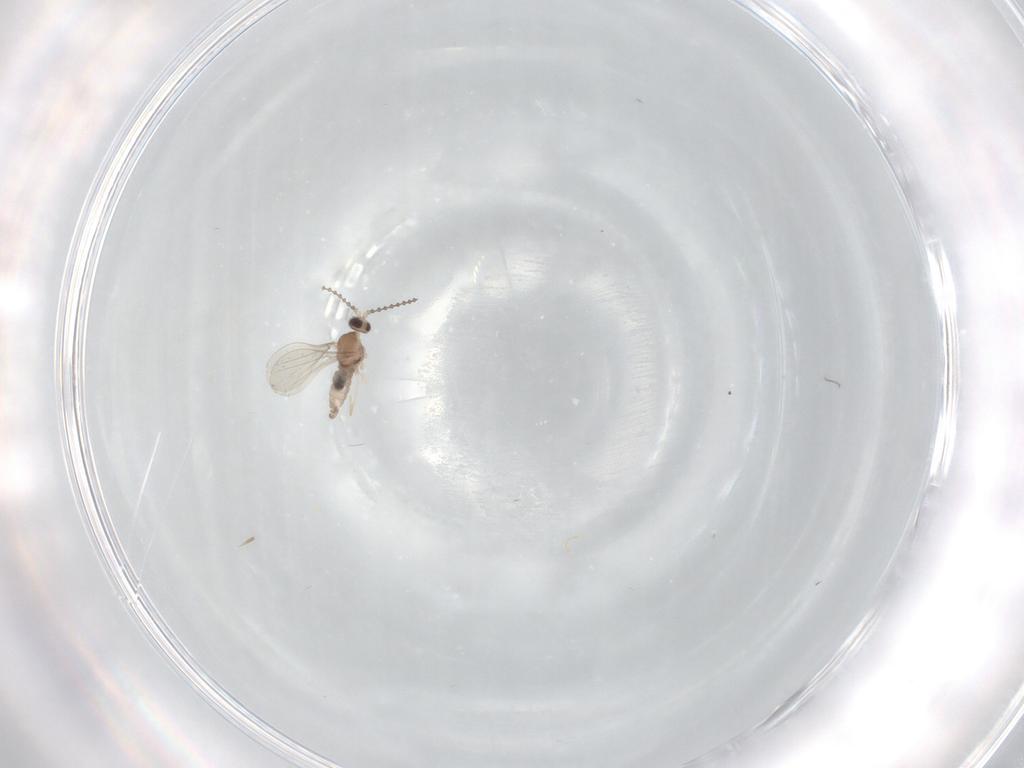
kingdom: Animalia
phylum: Arthropoda
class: Insecta
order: Diptera
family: Cecidomyiidae
